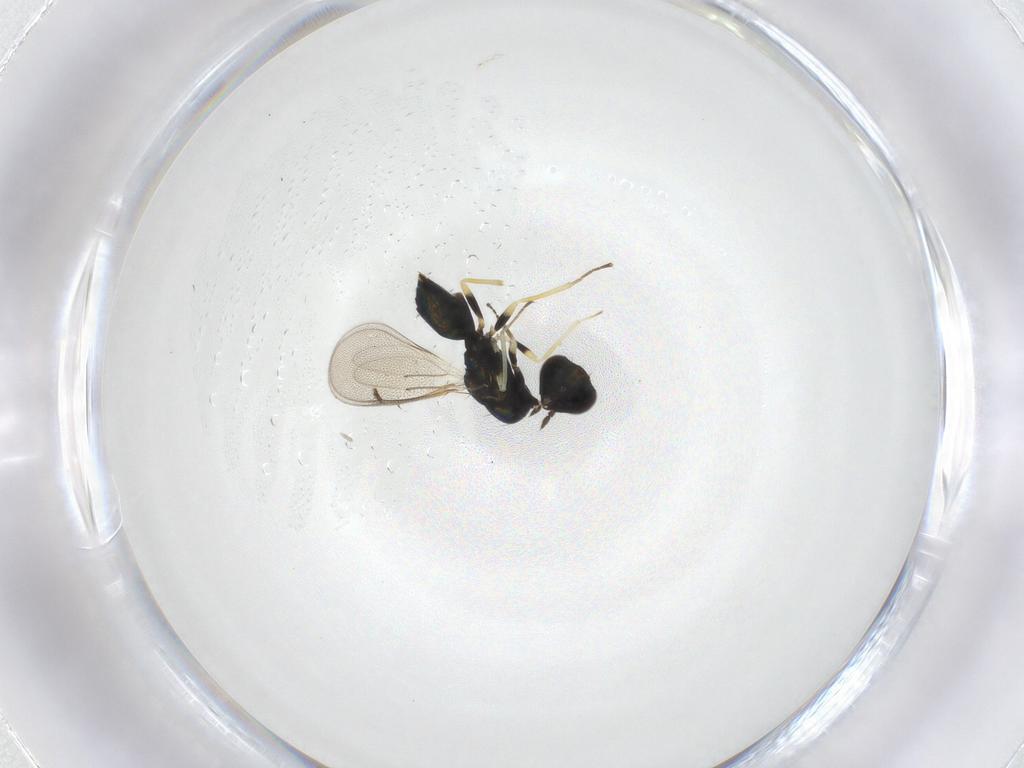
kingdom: Animalia
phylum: Arthropoda
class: Insecta
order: Hymenoptera
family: Eulophidae
